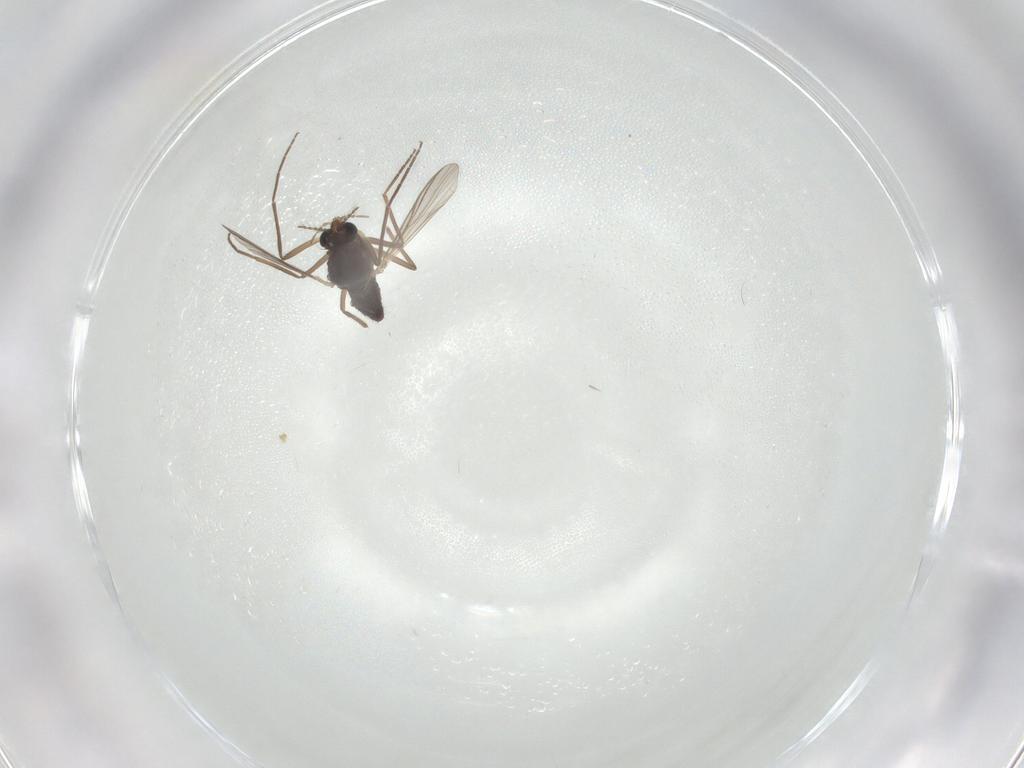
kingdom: Animalia
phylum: Arthropoda
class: Insecta
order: Diptera
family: Chironomidae
